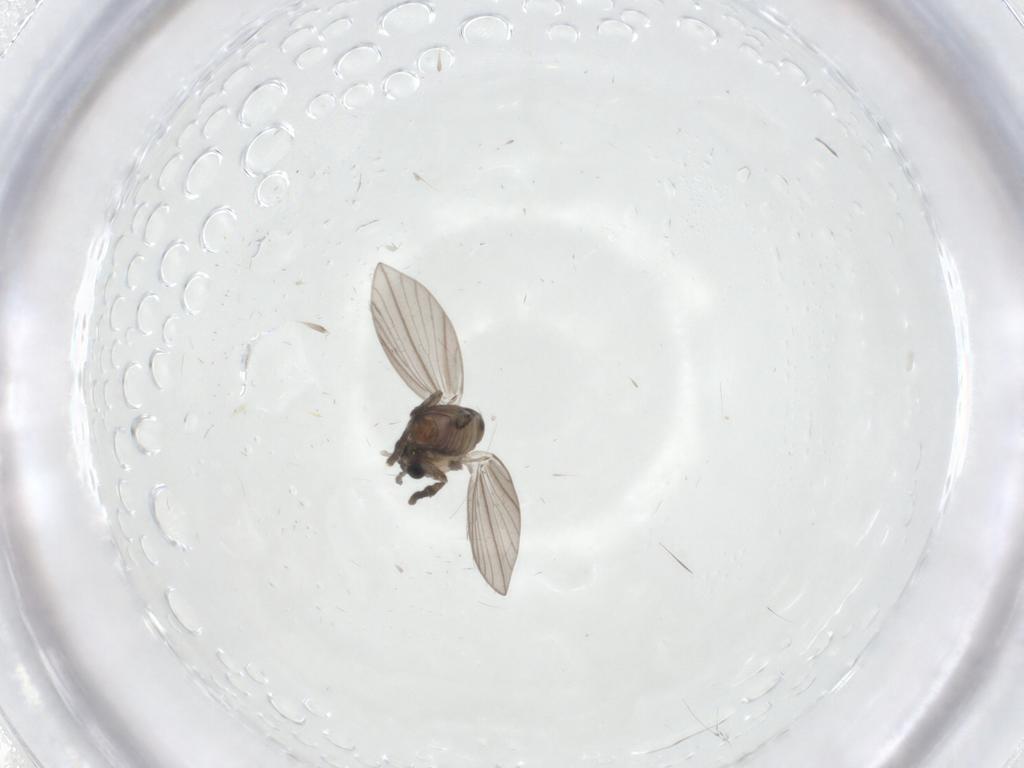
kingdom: Animalia
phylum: Arthropoda
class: Insecta
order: Diptera
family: Psychodidae
